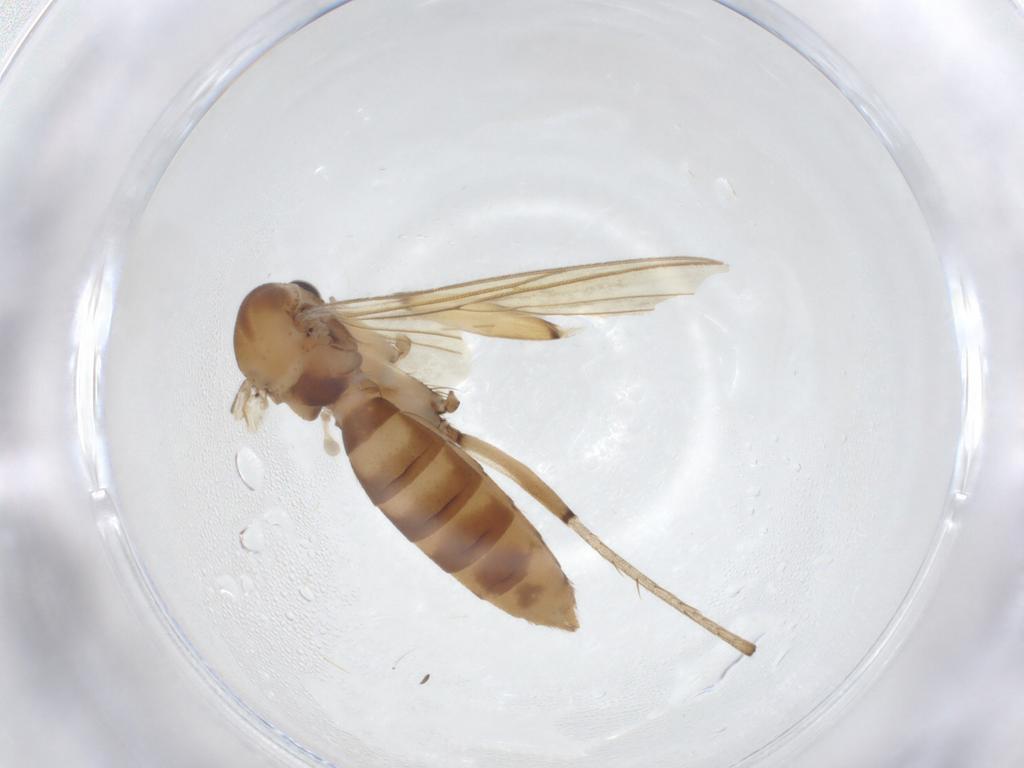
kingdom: Animalia
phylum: Arthropoda
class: Insecta
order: Diptera
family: Mycetophilidae
